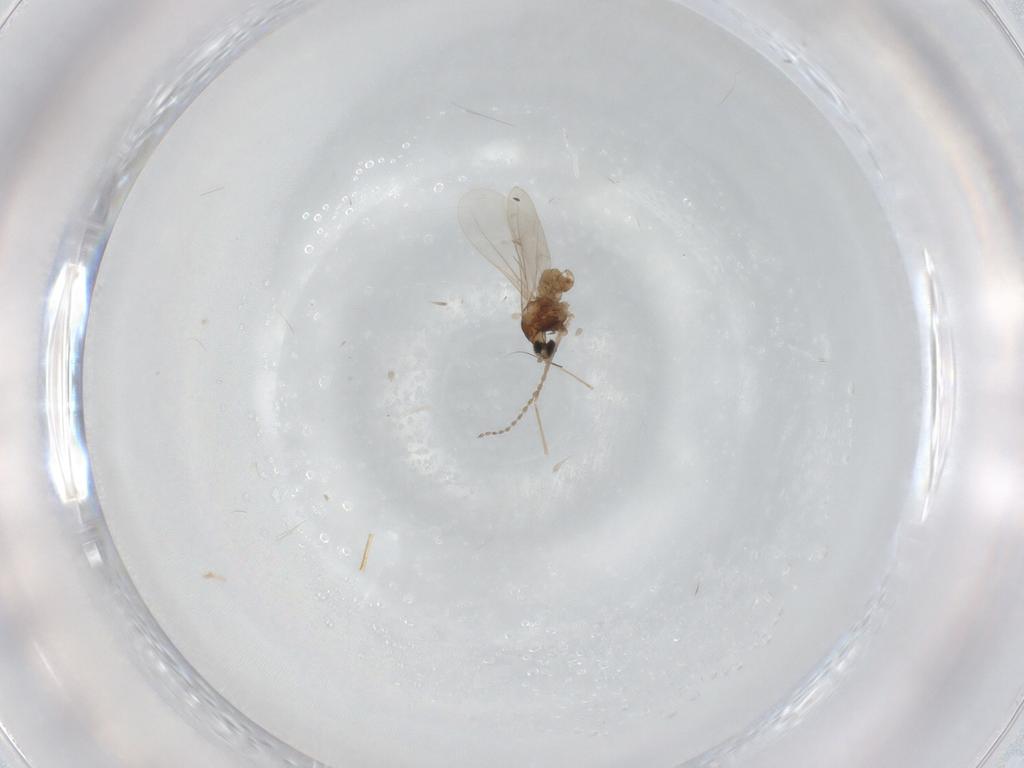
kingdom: Animalia
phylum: Arthropoda
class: Insecta
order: Diptera
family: Cecidomyiidae
